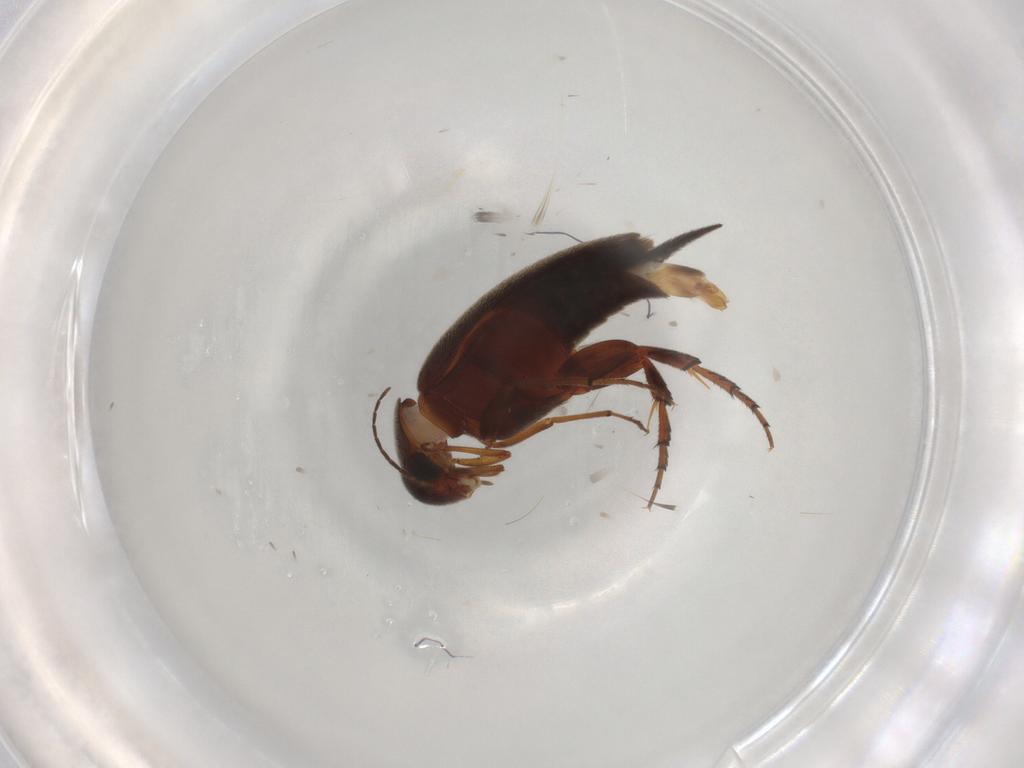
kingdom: Animalia
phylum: Arthropoda
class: Insecta
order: Coleoptera
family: Mordellidae
